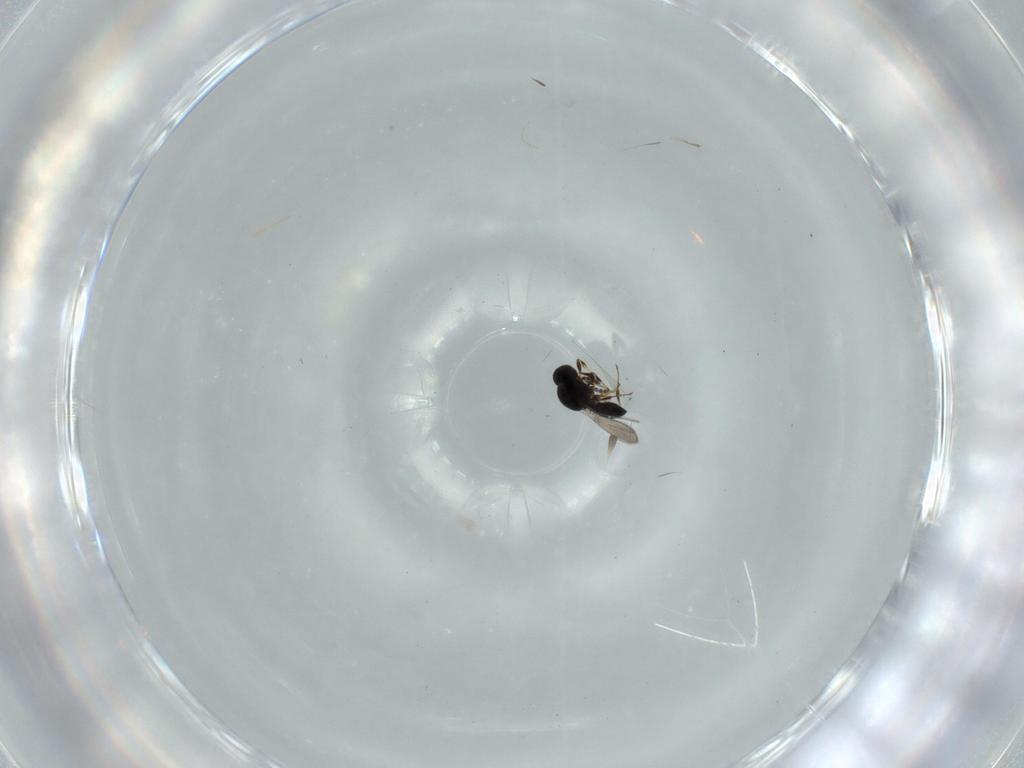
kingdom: Animalia
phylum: Arthropoda
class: Insecta
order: Hymenoptera
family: Platygastridae
